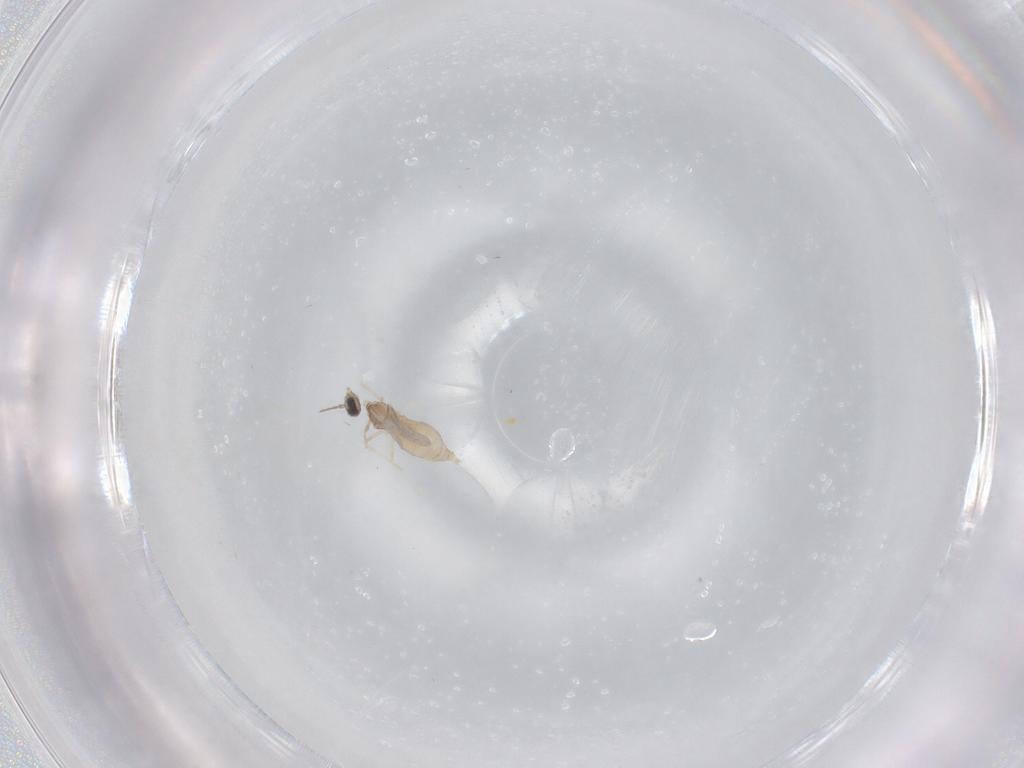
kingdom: Animalia
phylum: Arthropoda
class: Insecta
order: Diptera
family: Cecidomyiidae
